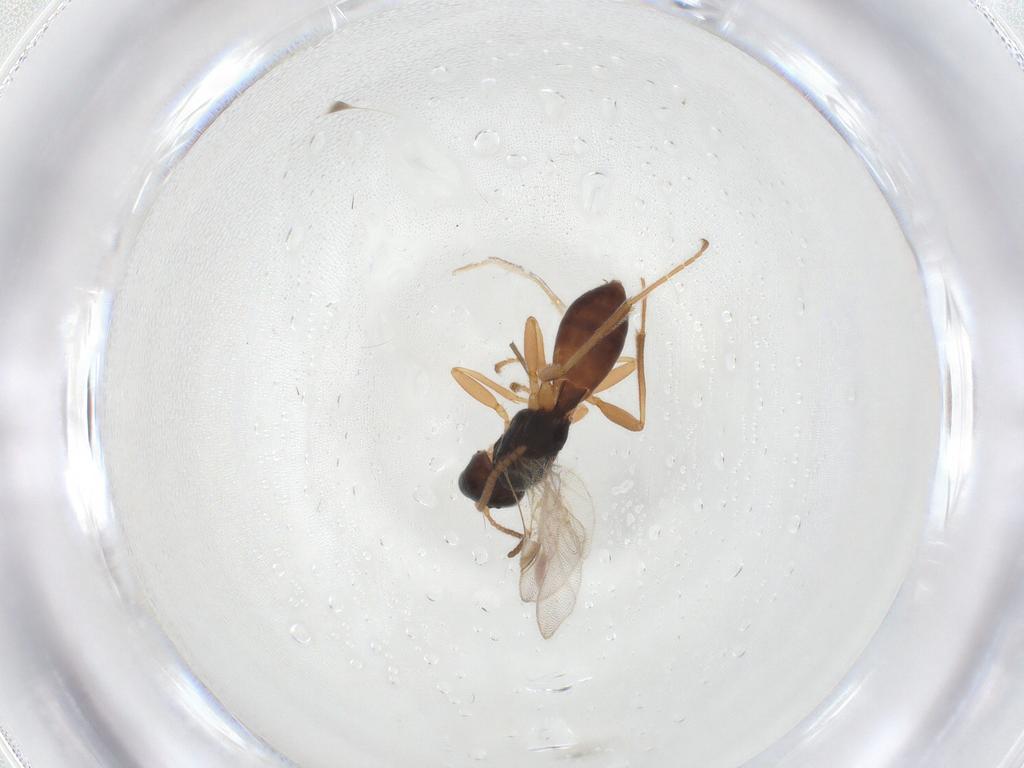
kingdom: Animalia
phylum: Arthropoda
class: Insecta
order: Hymenoptera
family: Braconidae
